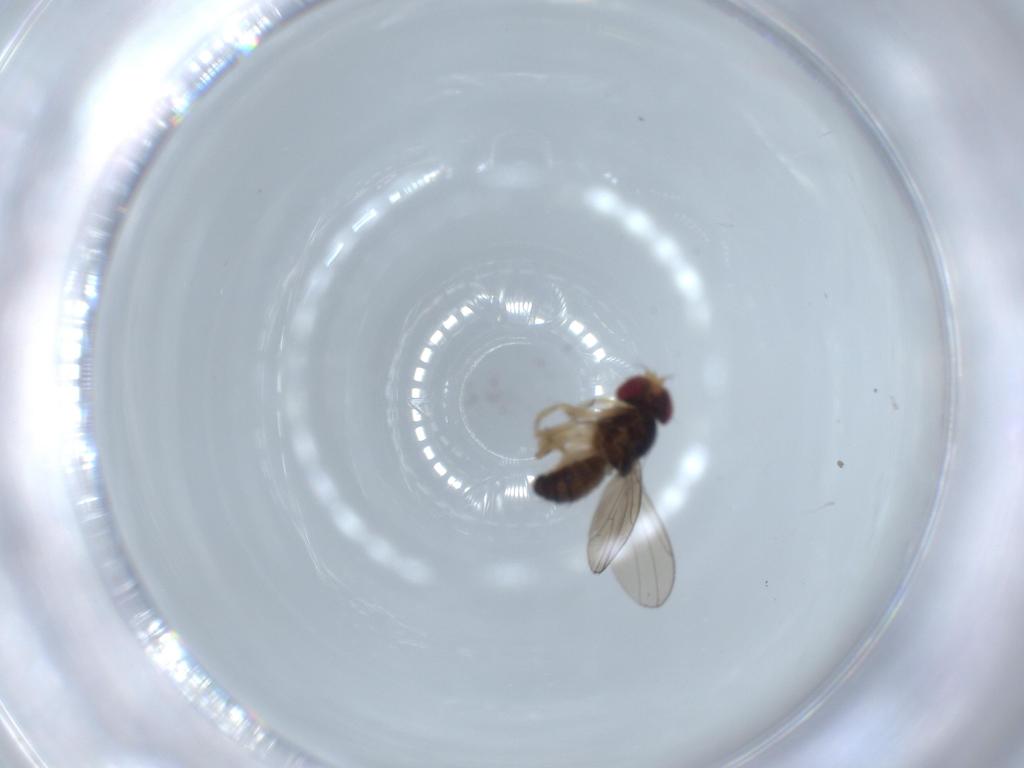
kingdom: Animalia
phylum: Arthropoda
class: Insecta
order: Diptera
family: Drosophilidae
